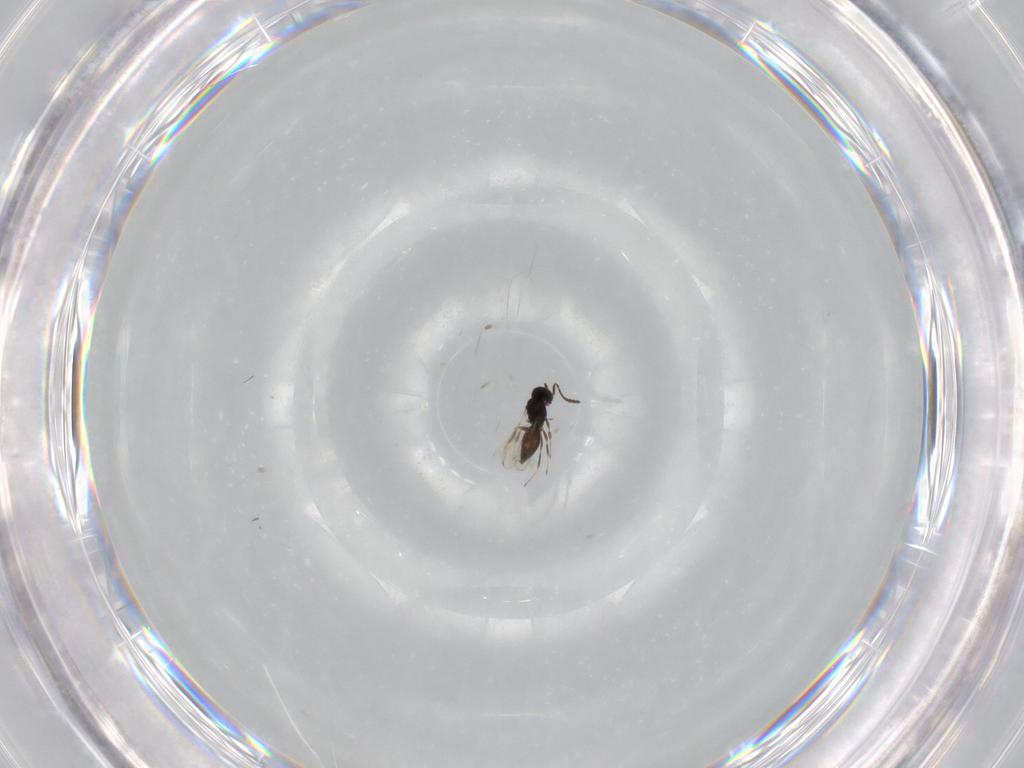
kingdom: Animalia
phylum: Arthropoda
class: Insecta
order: Hymenoptera
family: Scelionidae
